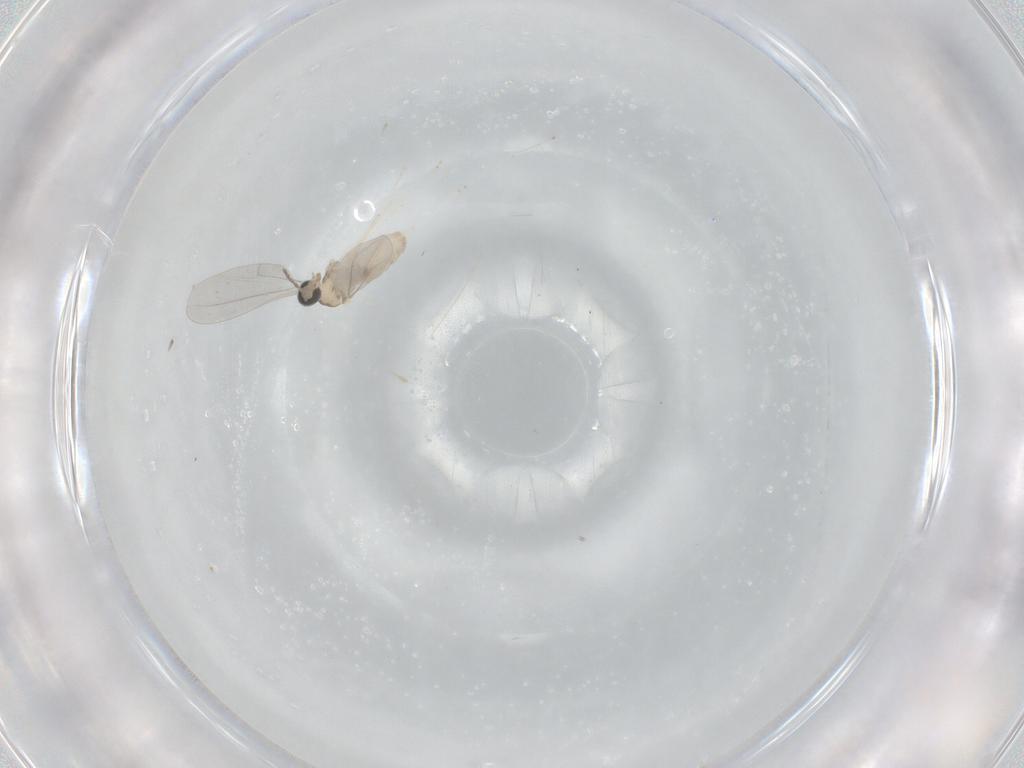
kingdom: Animalia
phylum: Arthropoda
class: Insecta
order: Diptera
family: Cecidomyiidae
